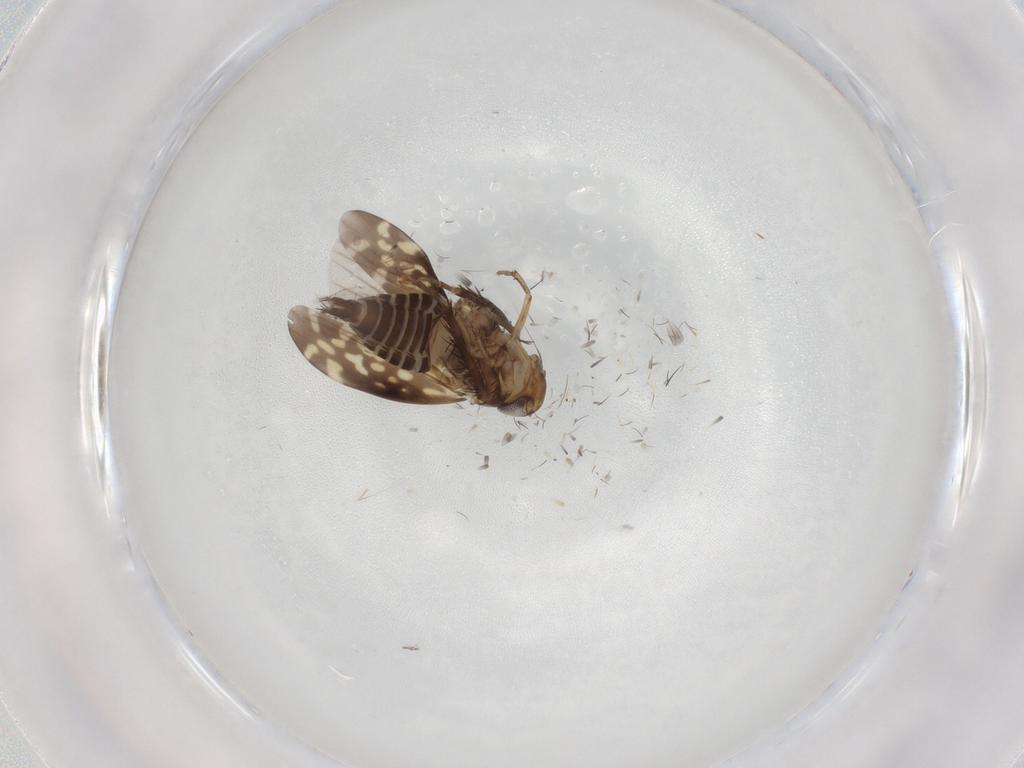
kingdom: Animalia
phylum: Arthropoda
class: Insecta
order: Hemiptera
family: Cicadellidae
